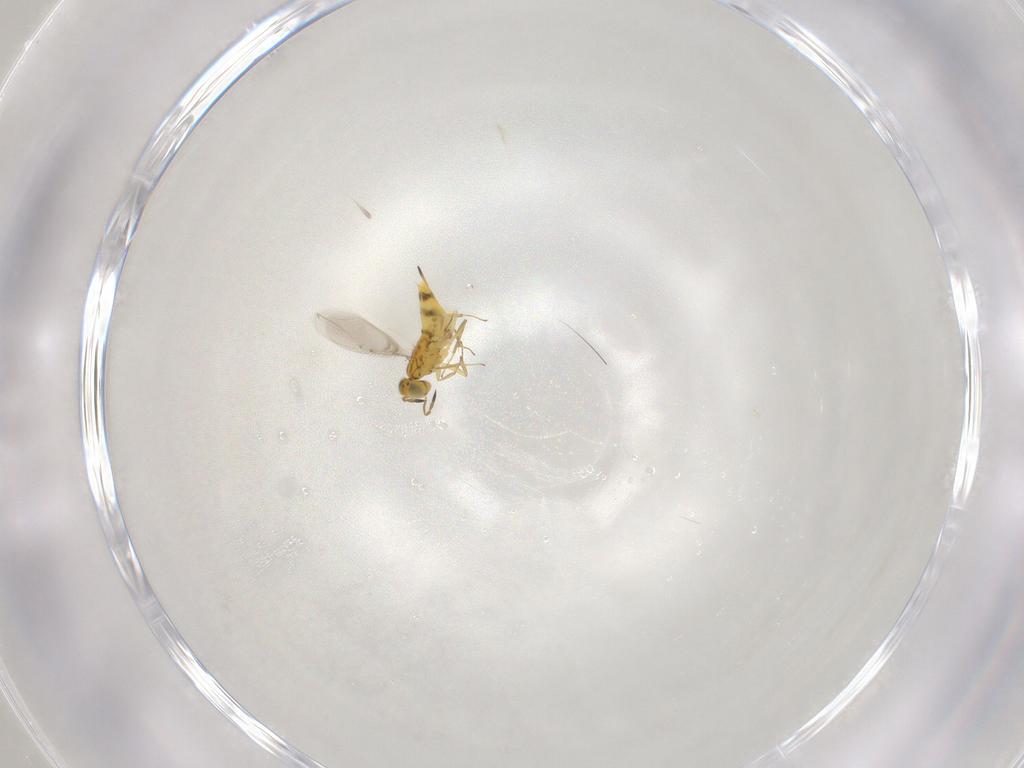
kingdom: Animalia
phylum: Arthropoda
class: Insecta
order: Hymenoptera
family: Aphelinidae
